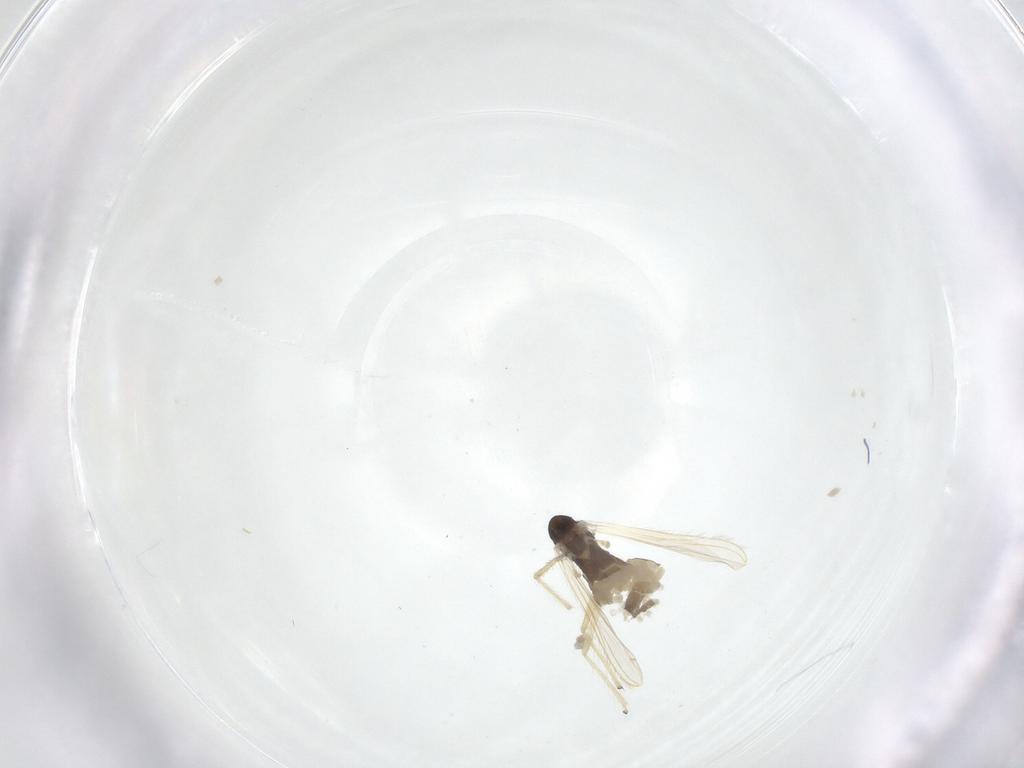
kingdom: Animalia
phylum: Arthropoda
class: Insecta
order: Diptera
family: Chironomidae
